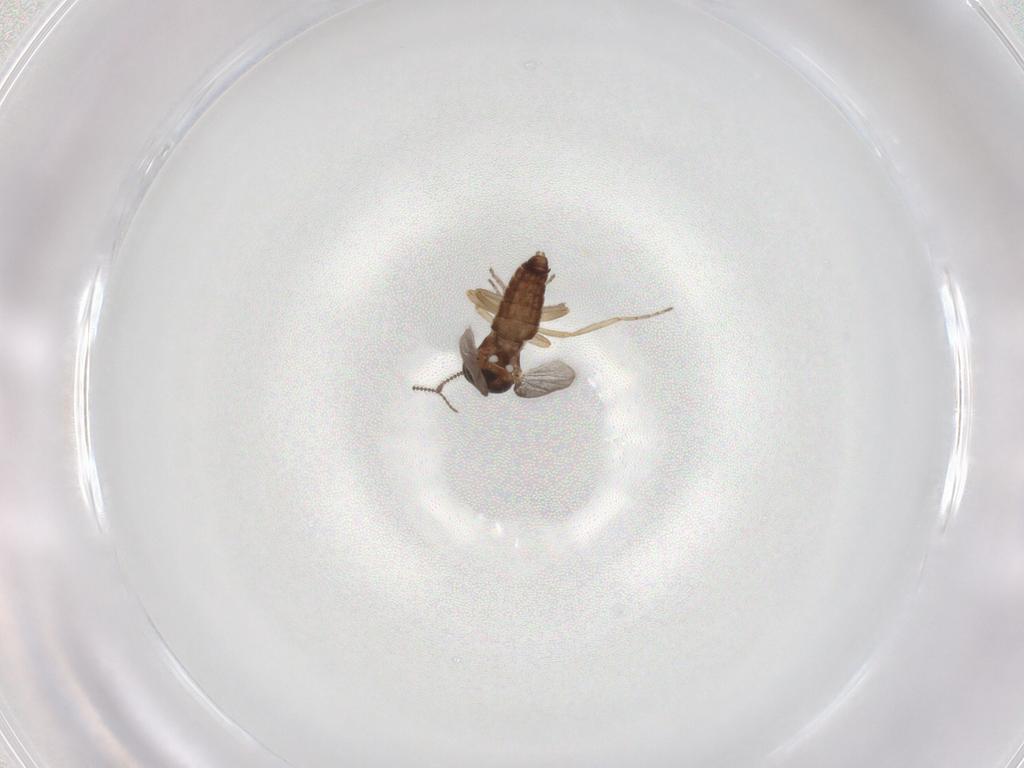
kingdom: Animalia
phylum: Arthropoda
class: Insecta
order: Diptera
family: Ceratopogonidae
